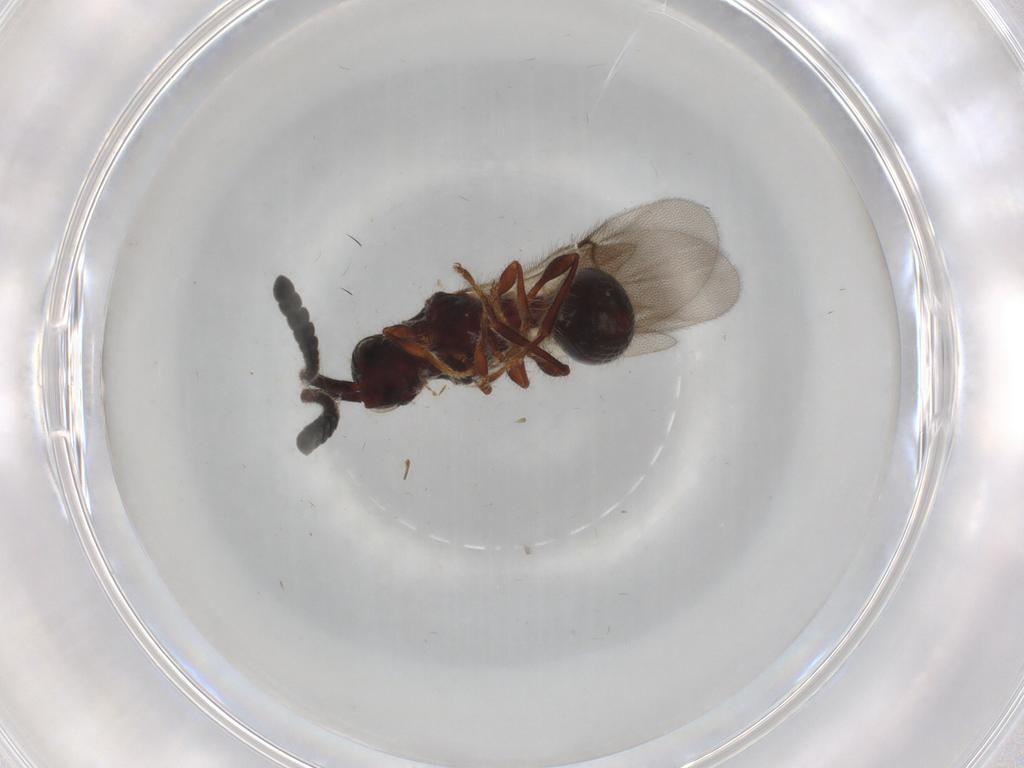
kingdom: Animalia
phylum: Arthropoda
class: Insecta
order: Hymenoptera
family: Diapriidae
